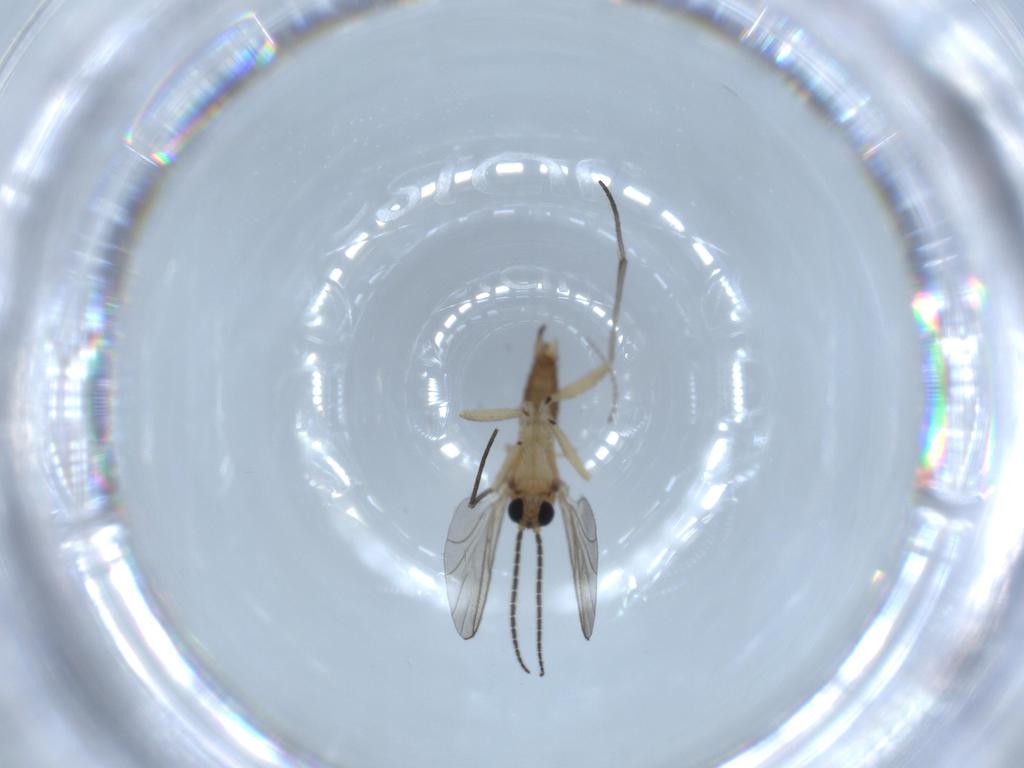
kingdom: Animalia
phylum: Arthropoda
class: Insecta
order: Diptera
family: Sciaridae
